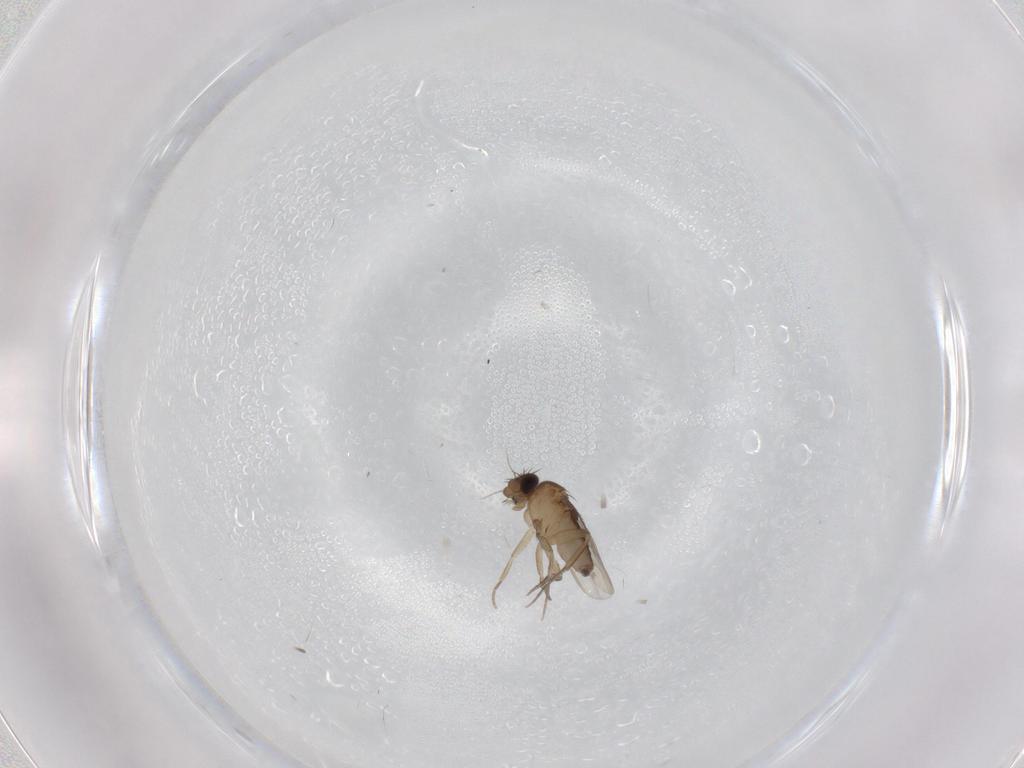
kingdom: Animalia
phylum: Arthropoda
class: Insecta
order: Diptera
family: Phoridae
